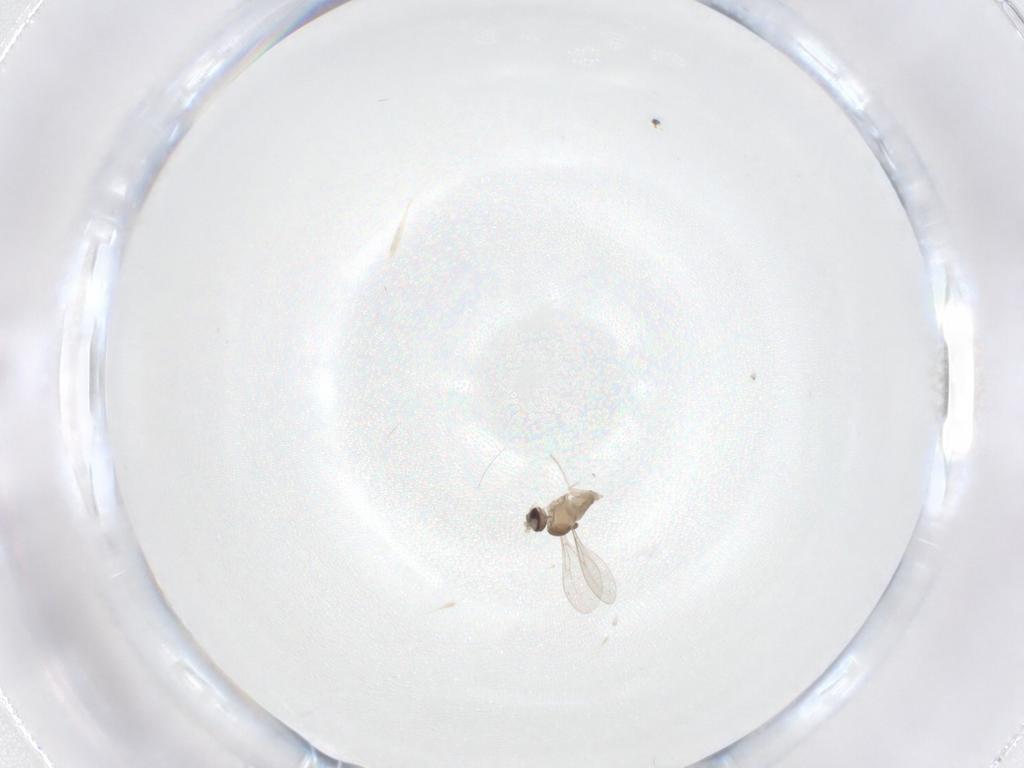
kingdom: Animalia
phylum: Arthropoda
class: Insecta
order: Diptera
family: Cecidomyiidae
